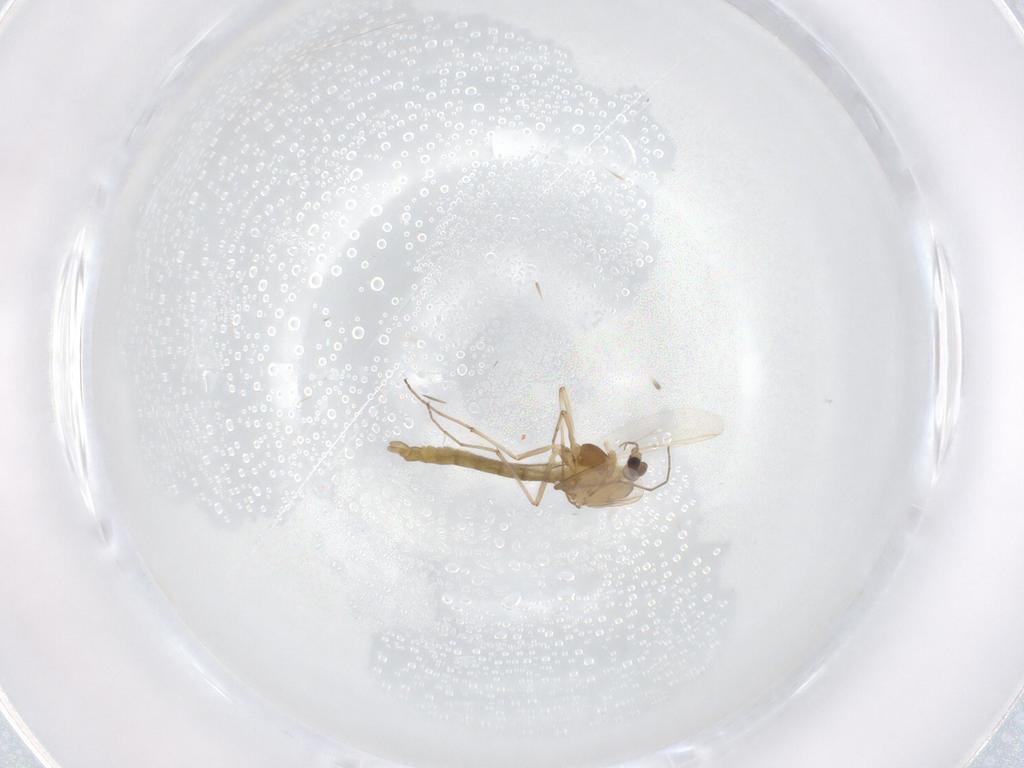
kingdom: Animalia
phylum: Arthropoda
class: Insecta
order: Diptera
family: Chironomidae
